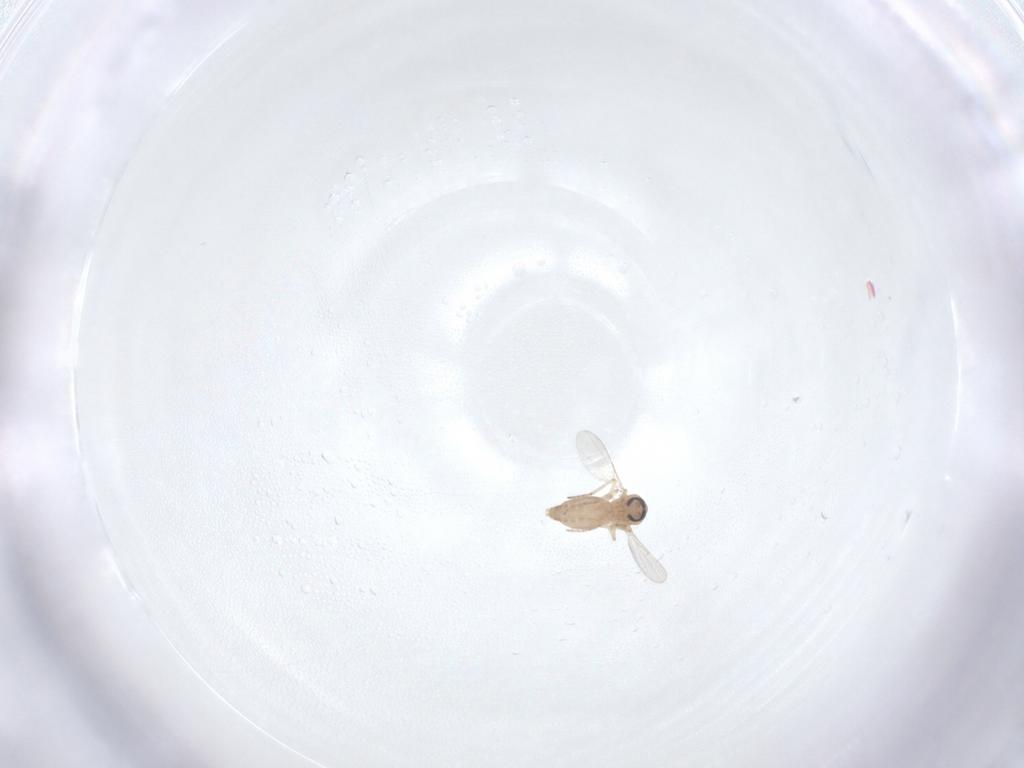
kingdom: Animalia
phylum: Arthropoda
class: Insecta
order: Diptera
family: Ceratopogonidae
